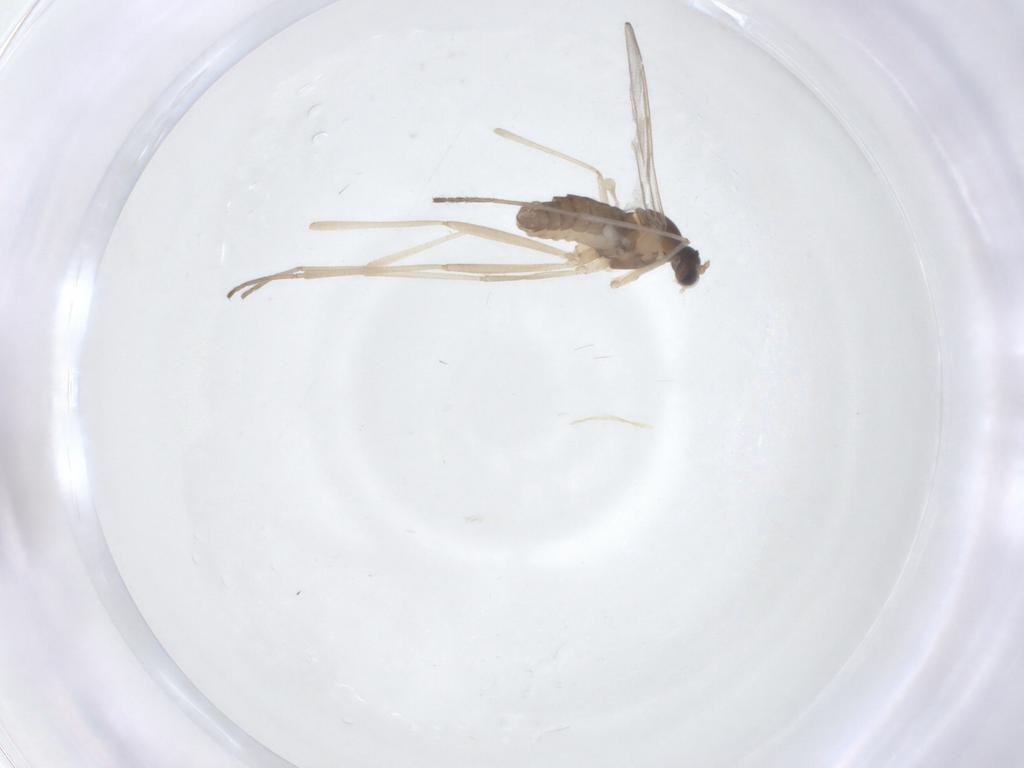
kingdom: Animalia
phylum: Arthropoda
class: Insecta
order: Diptera
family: Cecidomyiidae
